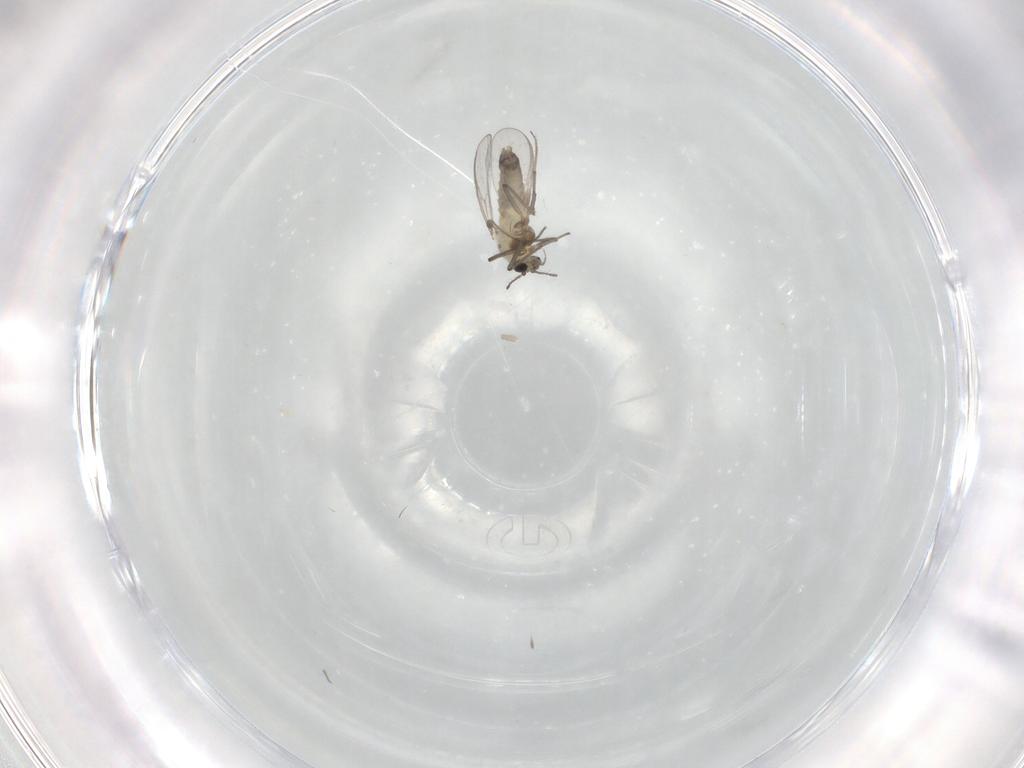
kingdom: Animalia
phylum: Arthropoda
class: Insecta
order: Diptera
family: Chironomidae
